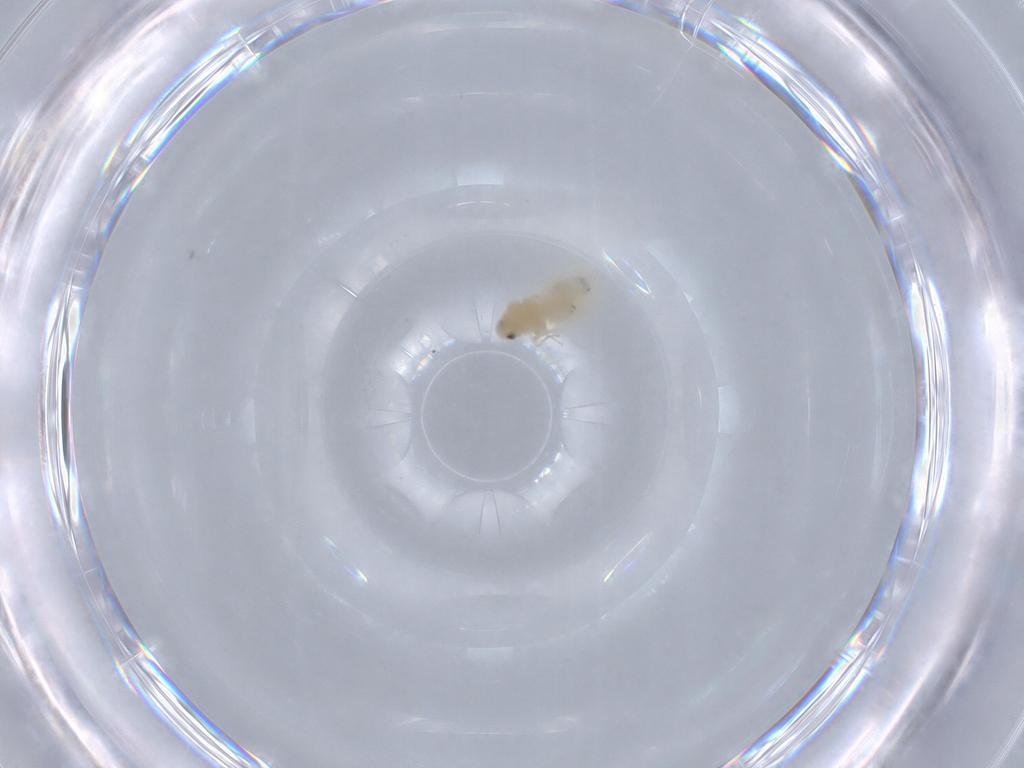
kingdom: Animalia
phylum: Arthropoda
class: Insecta
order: Hemiptera
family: Aleyrodidae
